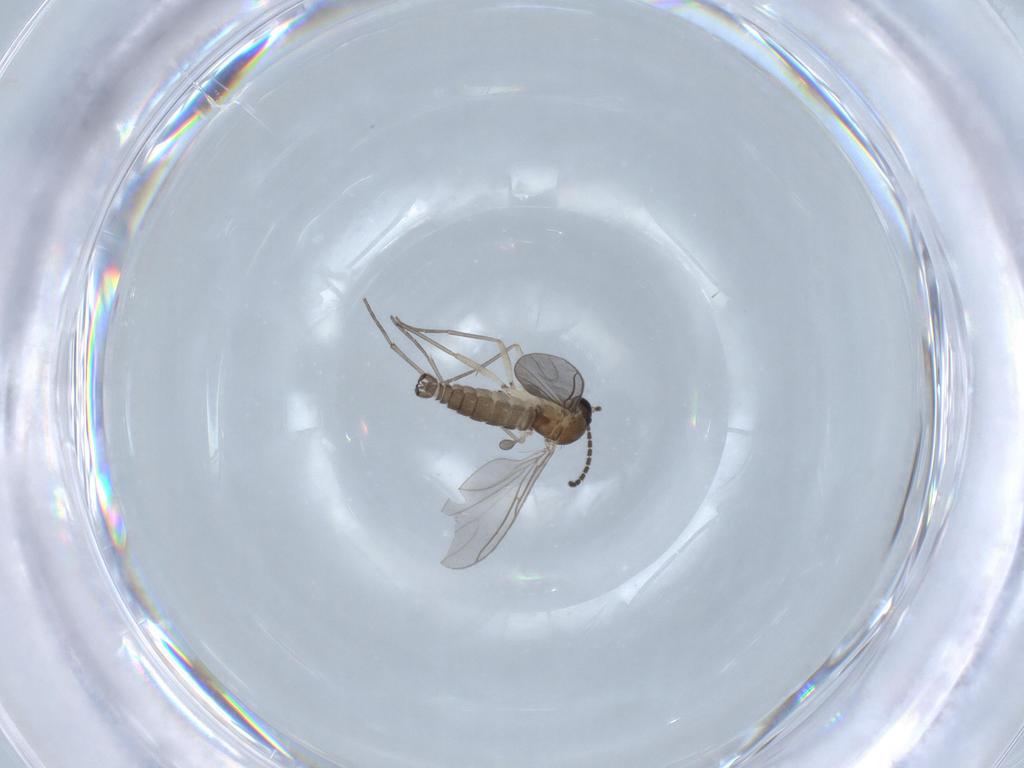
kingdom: Animalia
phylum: Arthropoda
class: Insecta
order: Diptera
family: Sciaridae
